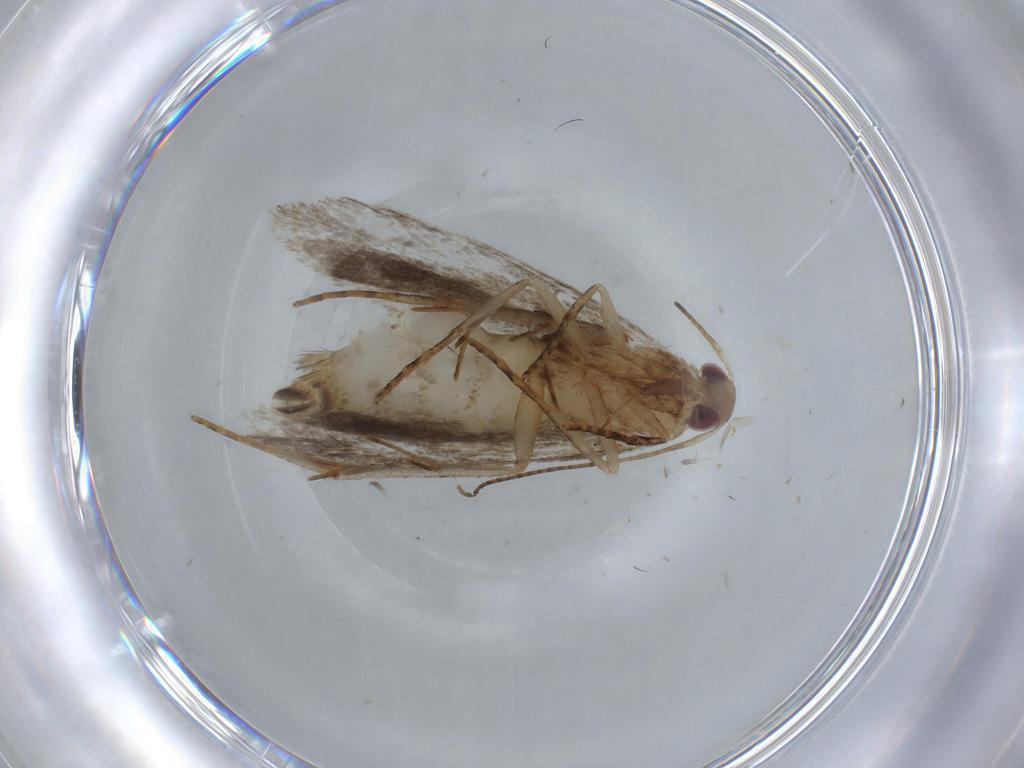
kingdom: Animalia
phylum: Arthropoda
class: Insecta
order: Lepidoptera
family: Gelechiidae
